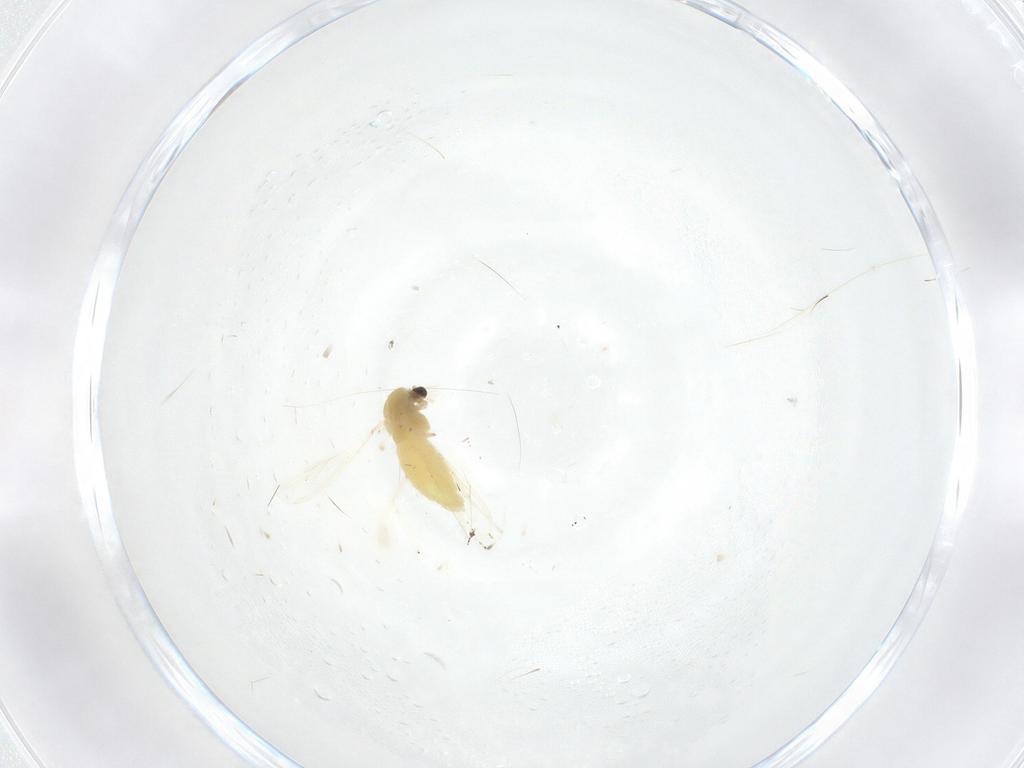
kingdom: Animalia
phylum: Arthropoda
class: Insecta
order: Diptera
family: Chironomidae
